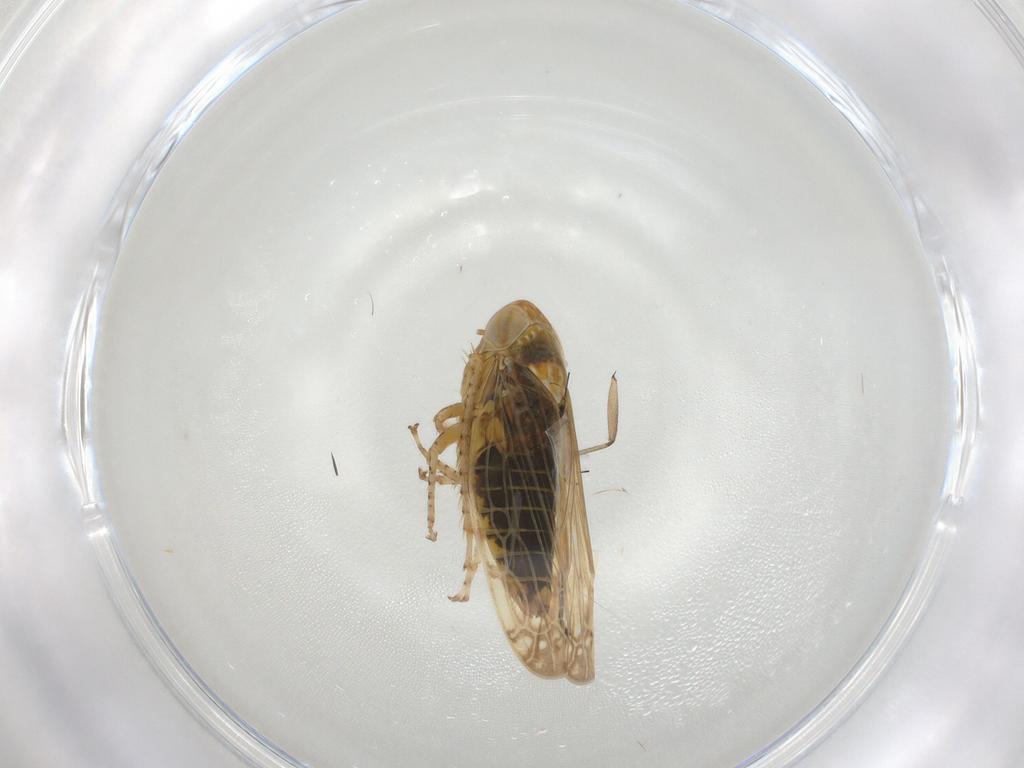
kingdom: Animalia
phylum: Arthropoda
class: Insecta
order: Hemiptera
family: Cicadellidae
